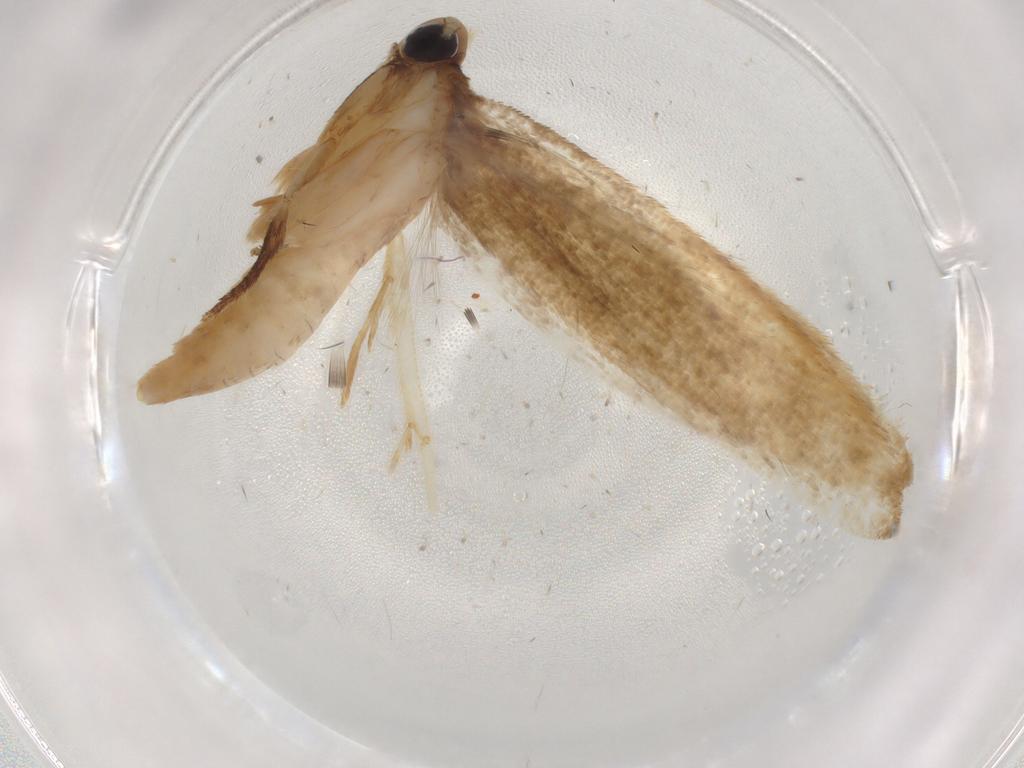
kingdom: Animalia
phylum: Arthropoda
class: Insecta
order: Lepidoptera
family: Tineidae
